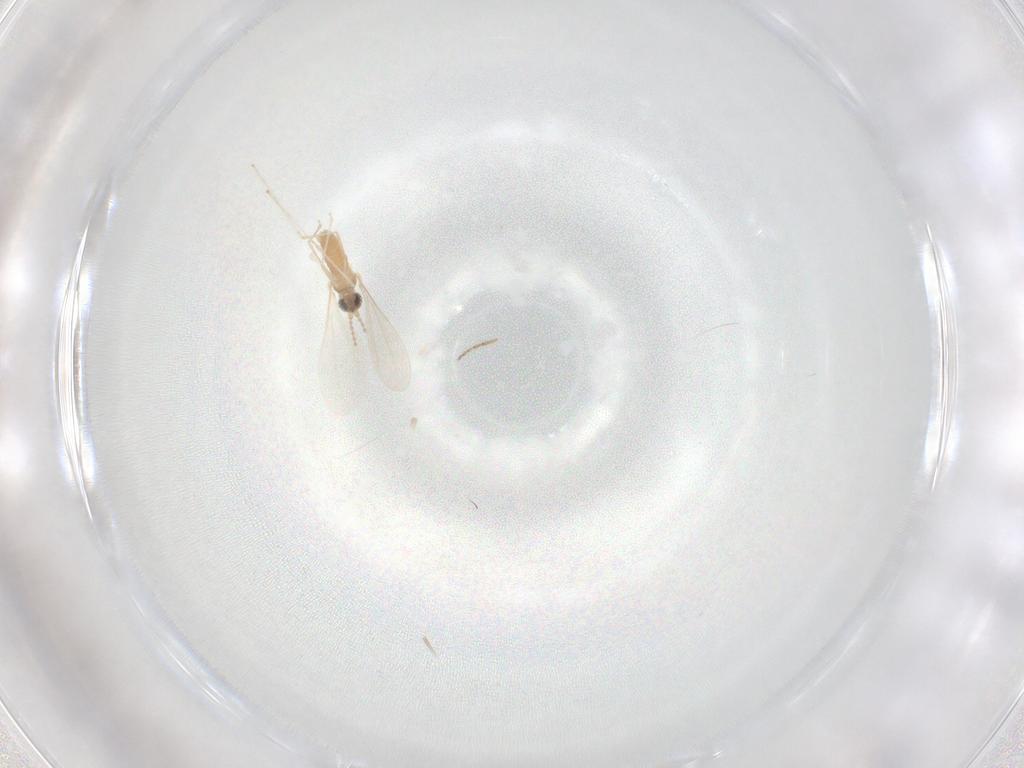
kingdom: Animalia
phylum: Arthropoda
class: Insecta
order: Diptera
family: Cecidomyiidae
